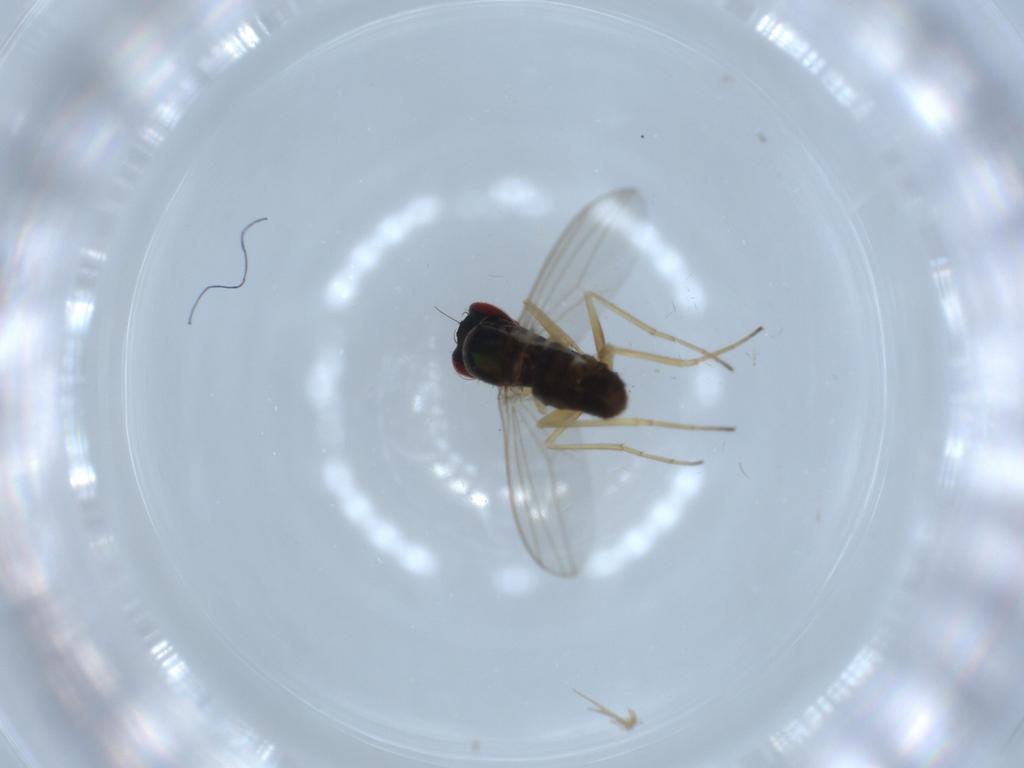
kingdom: Animalia
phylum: Arthropoda
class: Insecta
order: Diptera
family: Dolichopodidae
